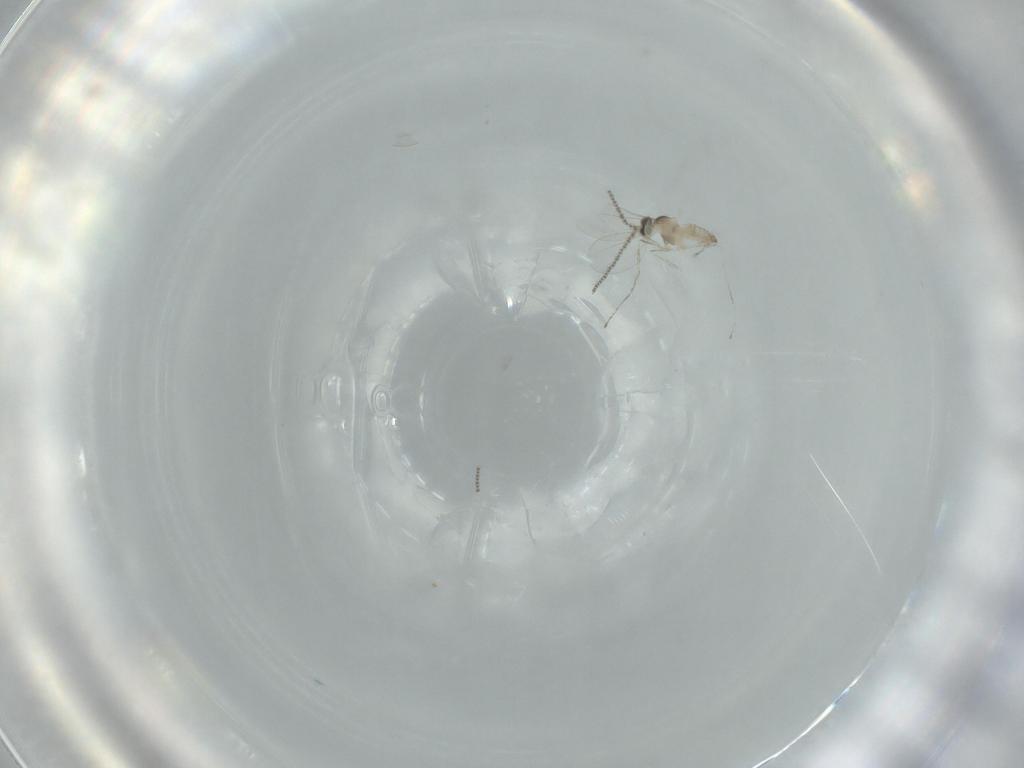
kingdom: Animalia
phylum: Arthropoda
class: Insecta
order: Diptera
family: Cecidomyiidae
